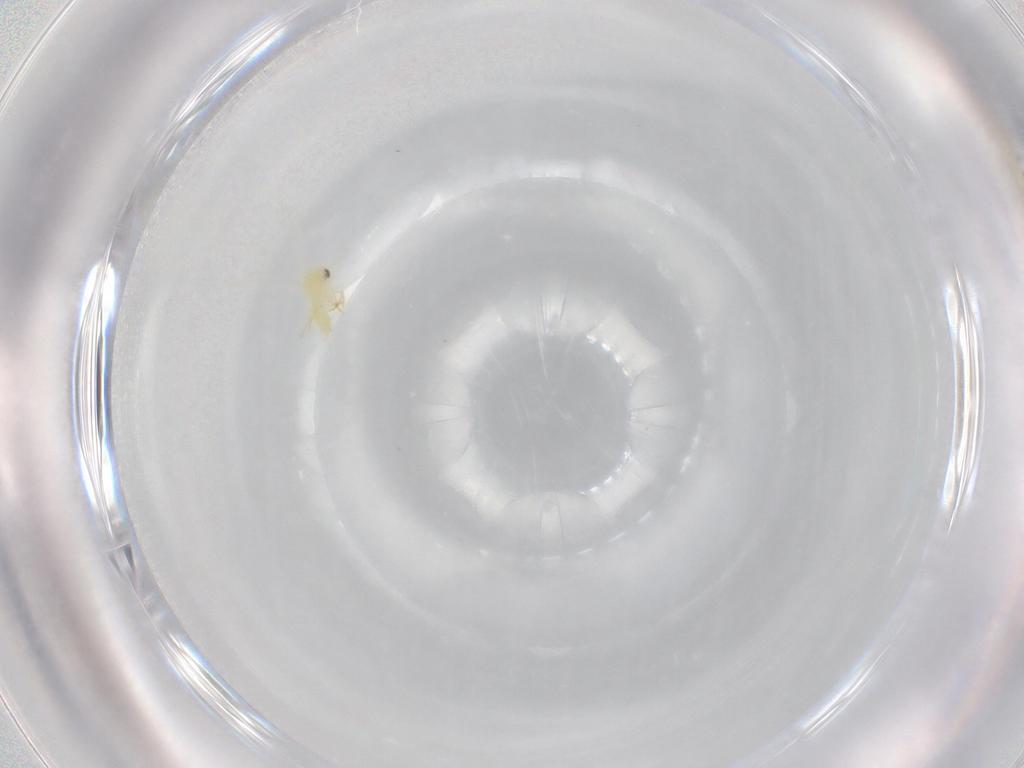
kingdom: Animalia
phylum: Arthropoda
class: Insecta
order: Hemiptera
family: Aleyrodidae
